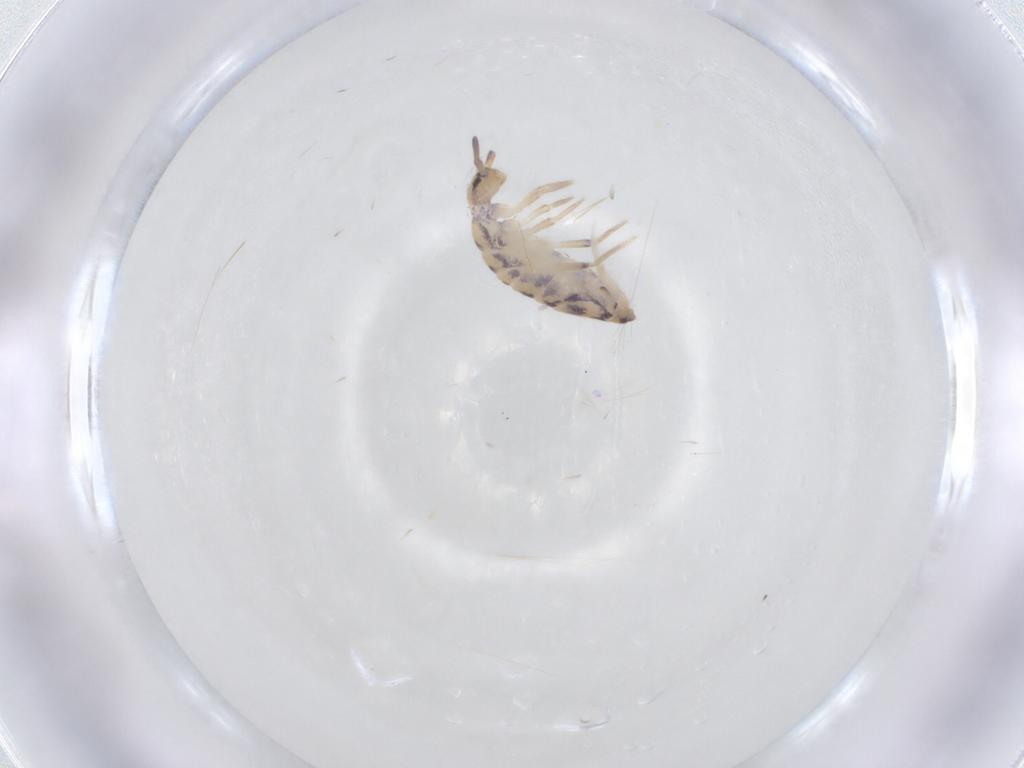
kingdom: Animalia
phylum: Arthropoda
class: Collembola
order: Entomobryomorpha
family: Entomobryidae
